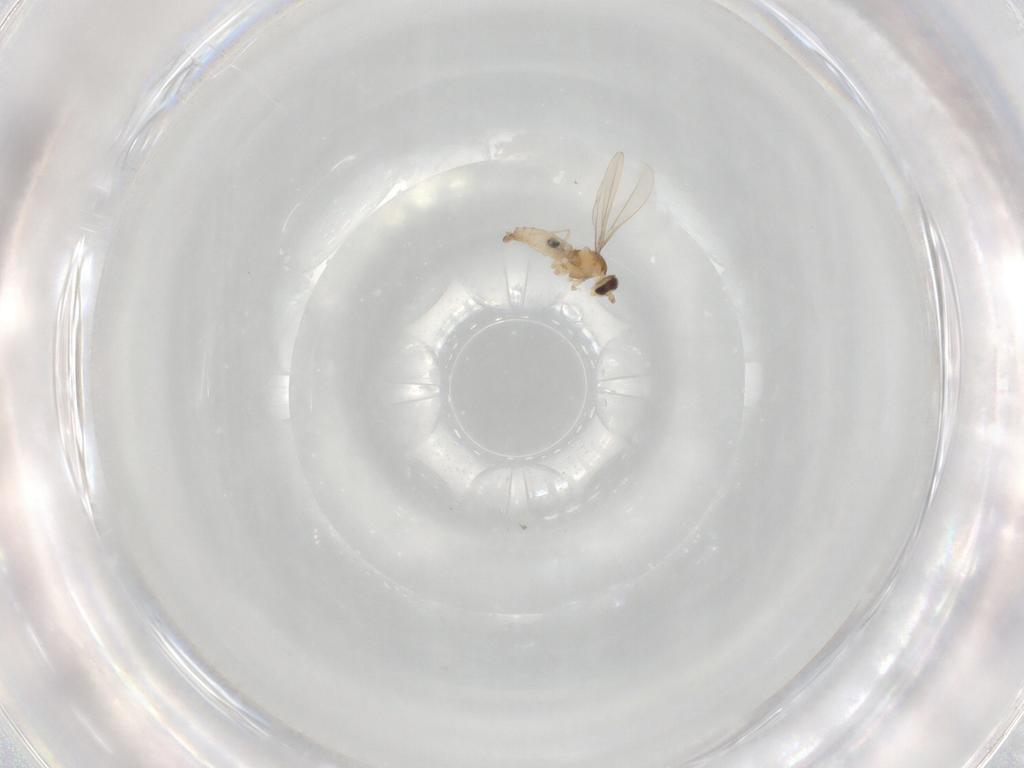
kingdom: Animalia
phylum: Arthropoda
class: Insecta
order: Diptera
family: Cecidomyiidae
